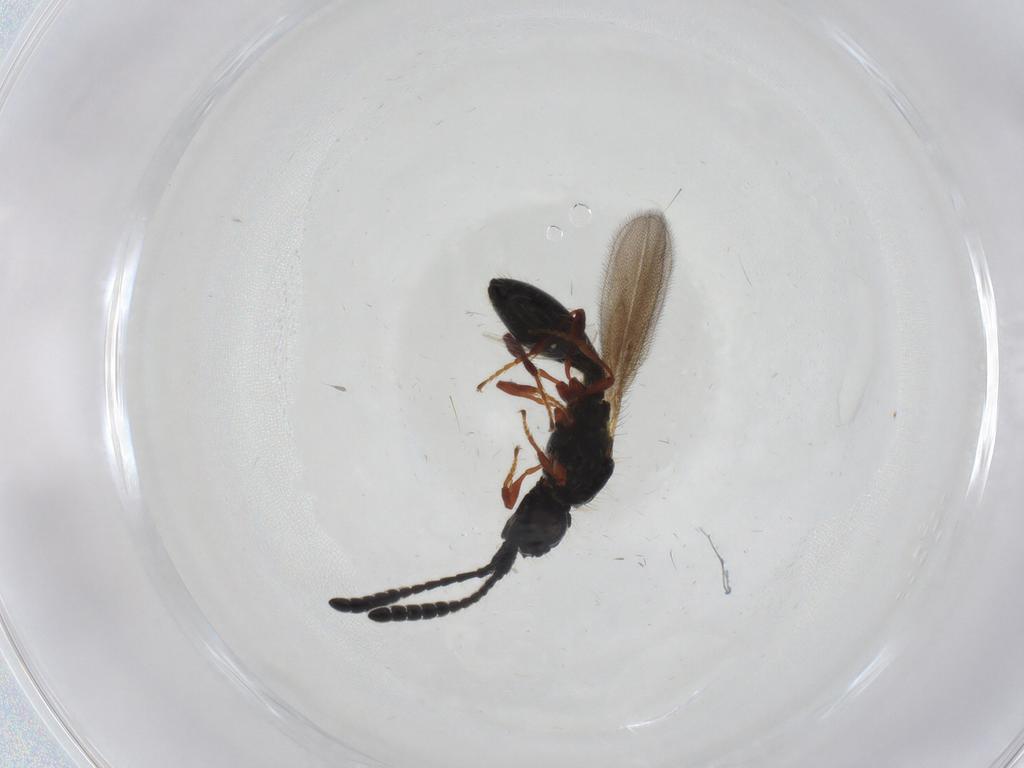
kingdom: Animalia
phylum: Arthropoda
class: Insecta
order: Hymenoptera
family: Diapriidae
